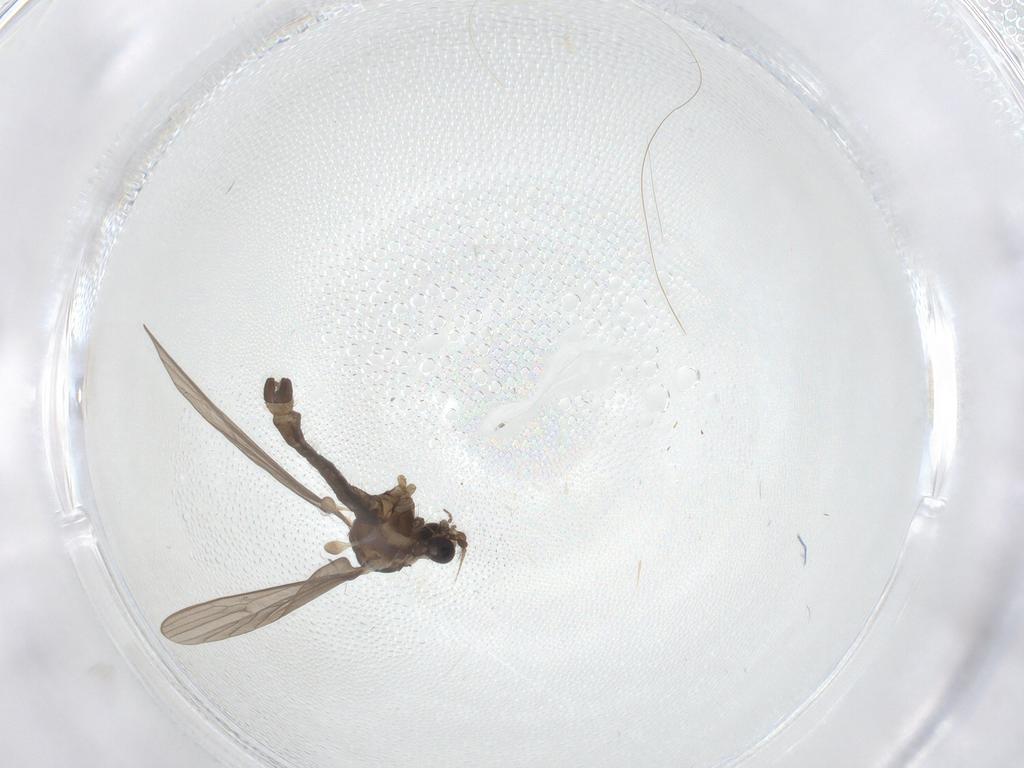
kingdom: Animalia
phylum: Arthropoda
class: Insecta
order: Diptera
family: Limoniidae
